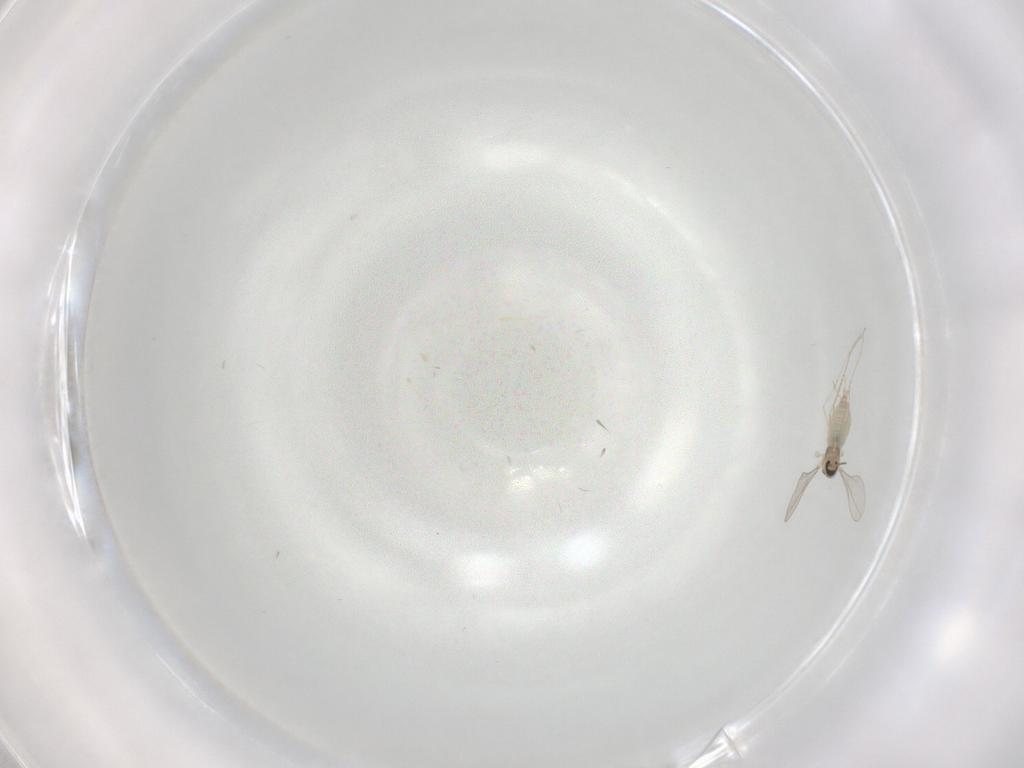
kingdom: Animalia
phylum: Arthropoda
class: Insecta
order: Diptera
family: Cecidomyiidae
